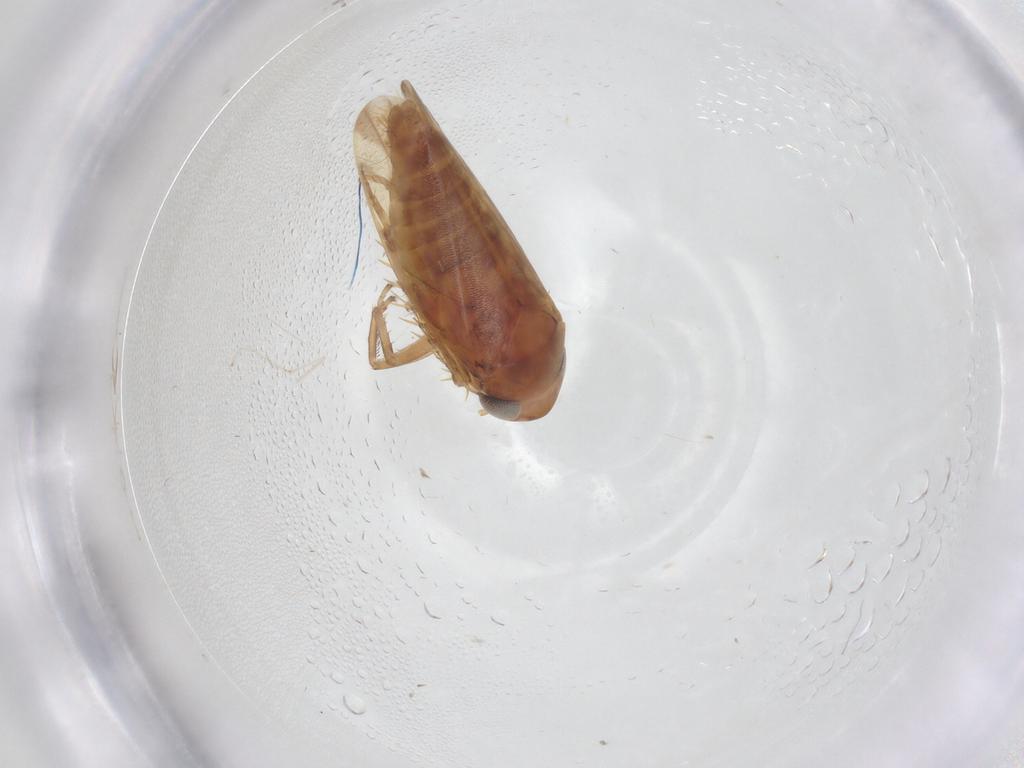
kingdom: Animalia
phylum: Arthropoda
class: Insecta
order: Hemiptera
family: Cicadellidae
